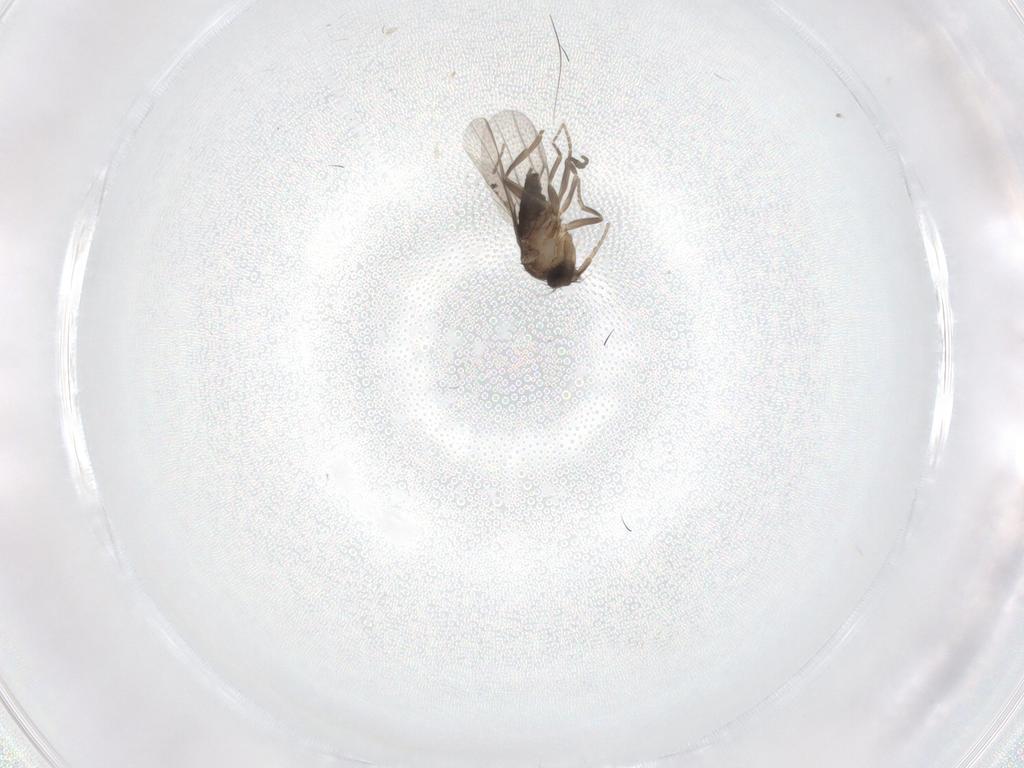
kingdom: Animalia
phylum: Arthropoda
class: Insecta
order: Diptera
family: Phoridae
